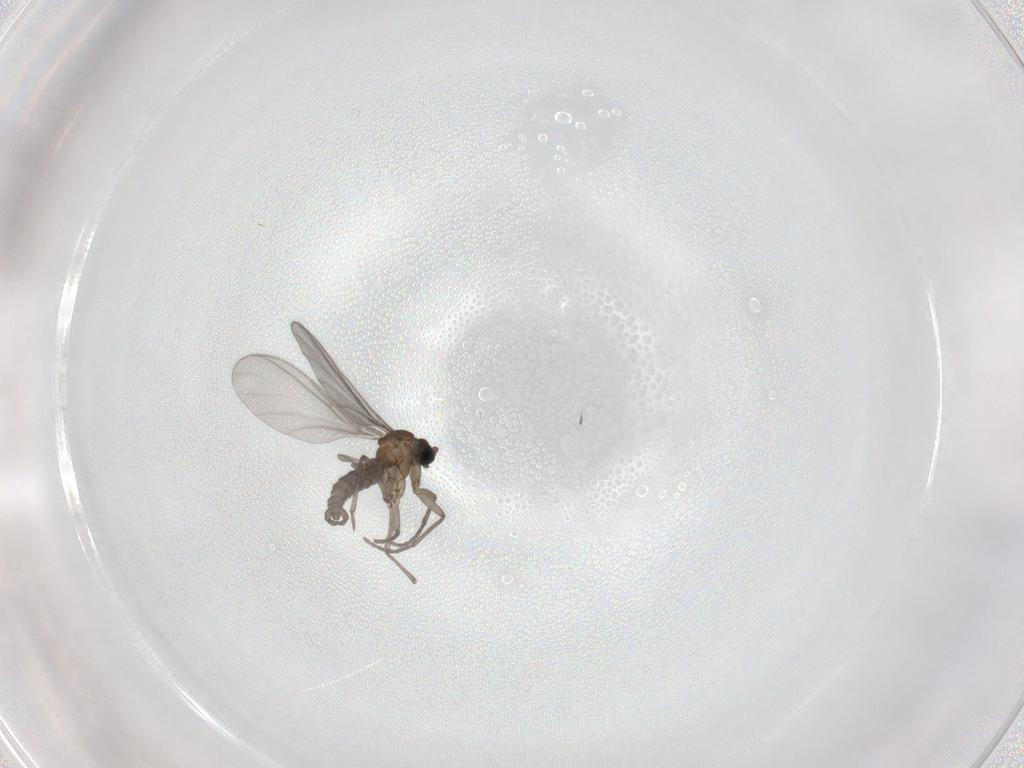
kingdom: Animalia
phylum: Arthropoda
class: Insecta
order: Diptera
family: Sciaridae
